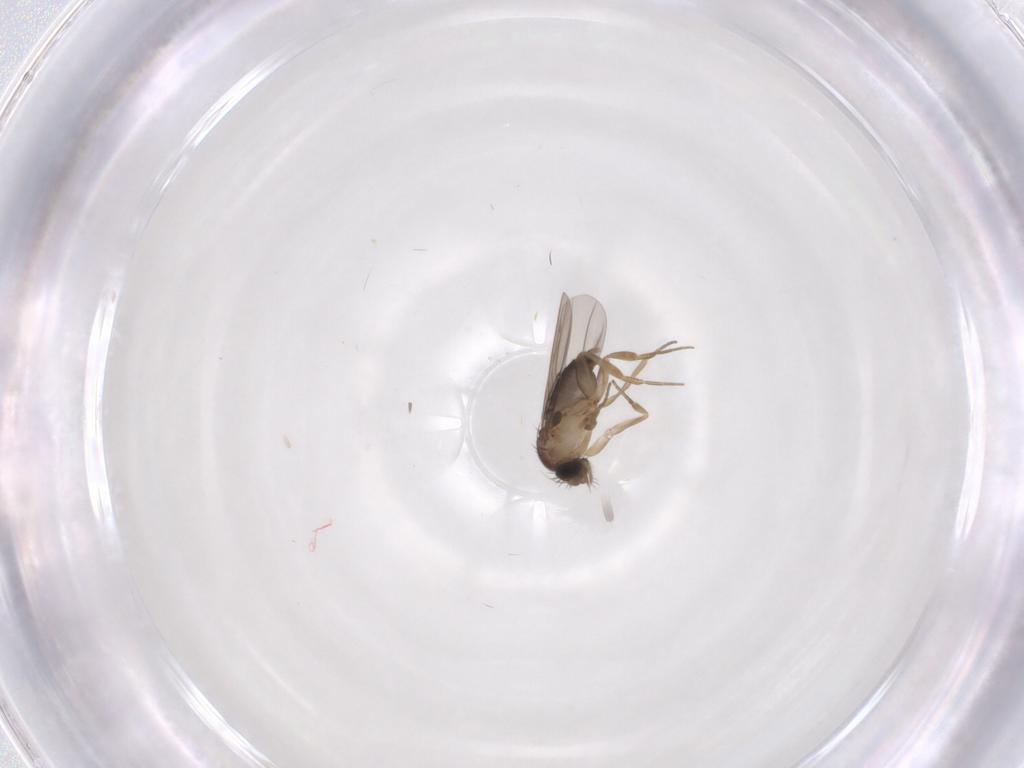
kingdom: Animalia
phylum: Arthropoda
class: Insecta
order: Diptera
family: Phoridae
